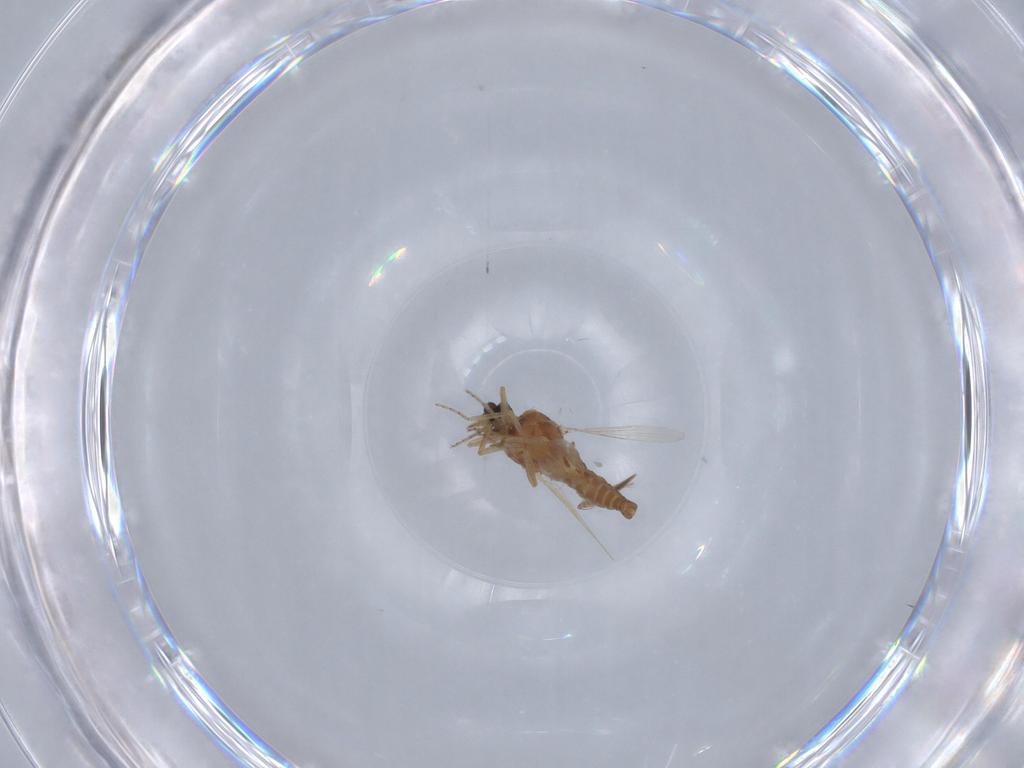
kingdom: Animalia
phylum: Arthropoda
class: Insecta
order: Diptera
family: Ceratopogonidae
